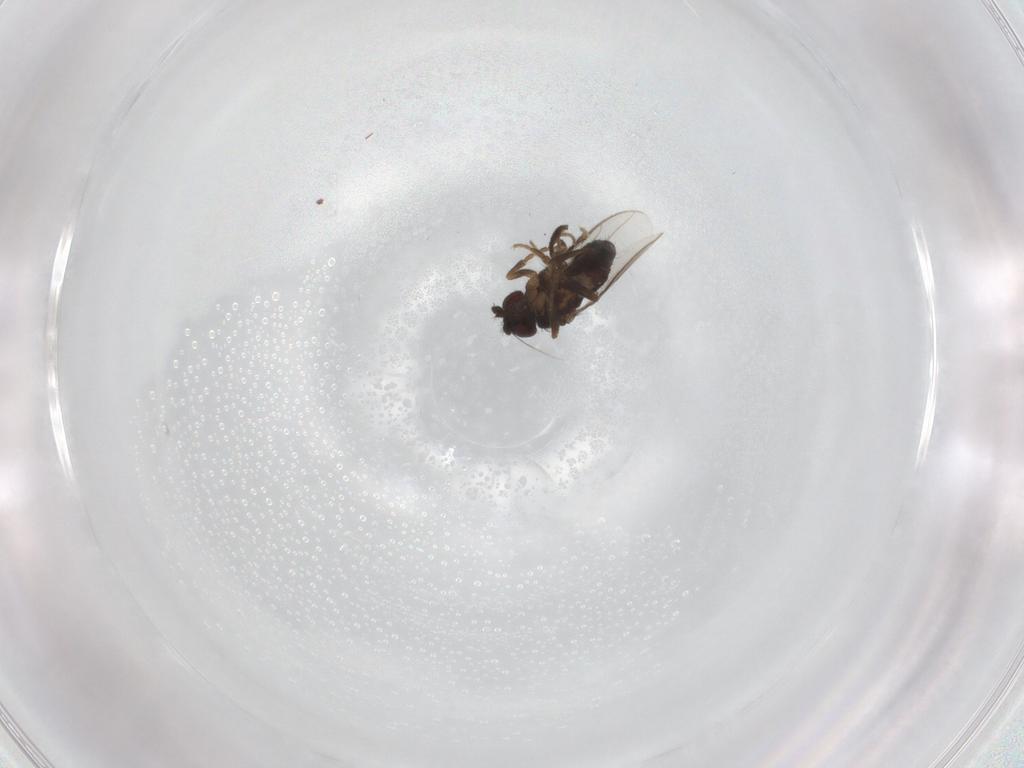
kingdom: Animalia
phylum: Arthropoda
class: Insecta
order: Diptera
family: Sphaeroceridae
